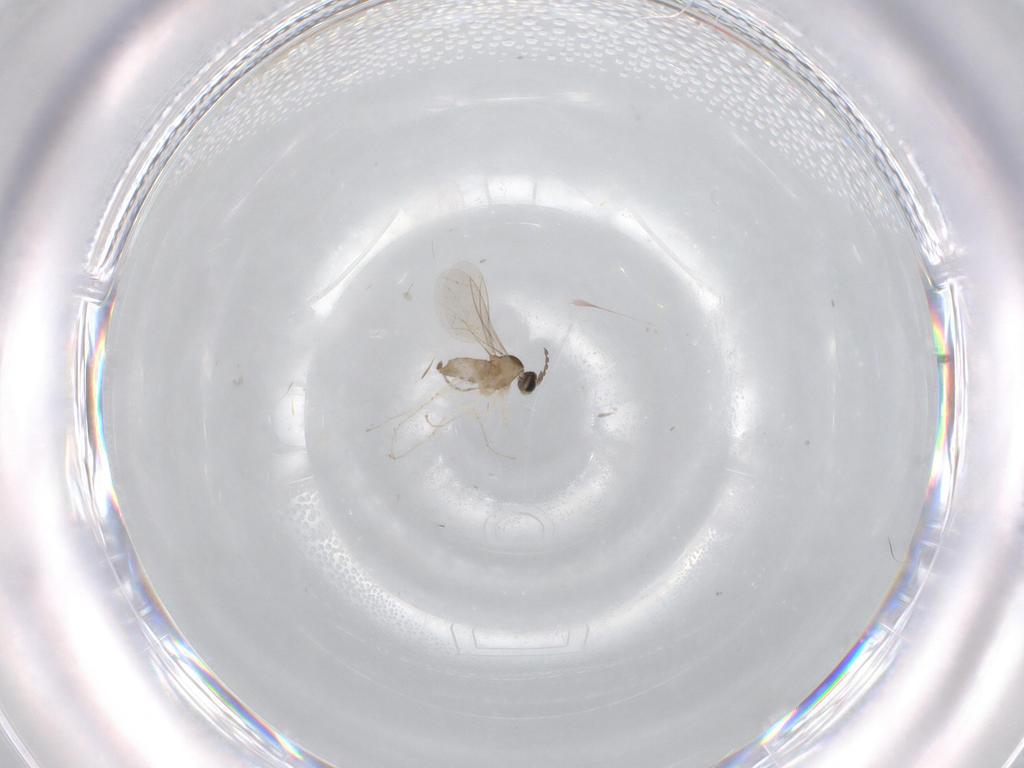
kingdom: Animalia
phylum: Arthropoda
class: Insecta
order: Diptera
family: Cecidomyiidae
